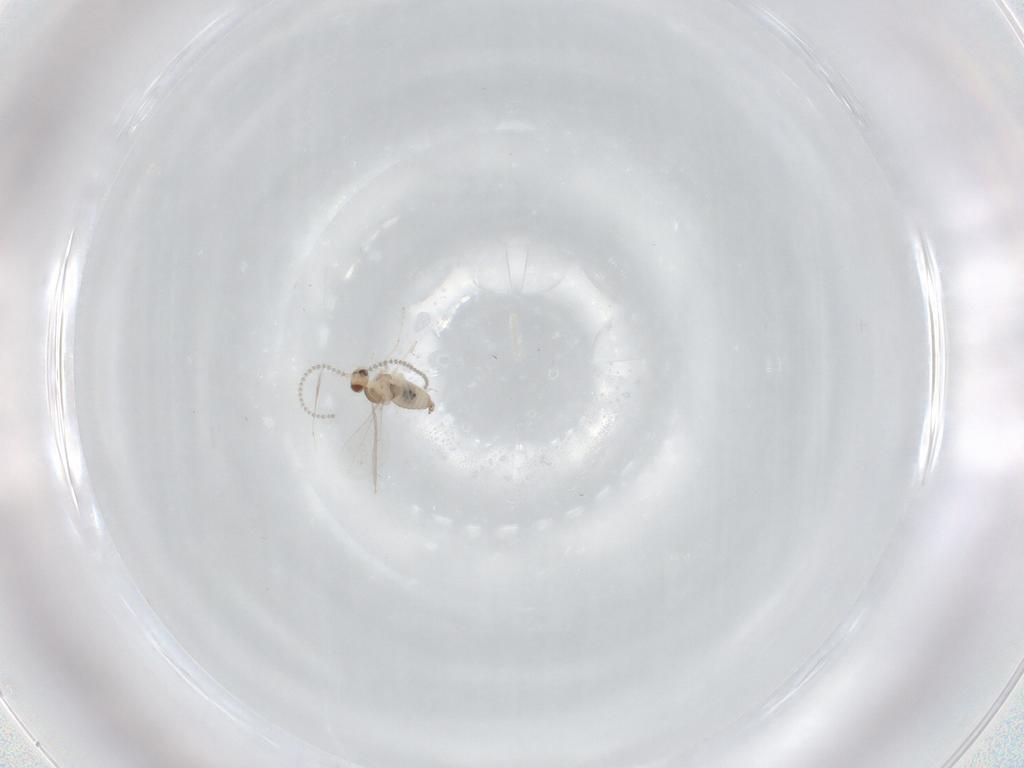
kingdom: Animalia
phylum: Arthropoda
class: Insecta
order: Diptera
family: Cecidomyiidae
